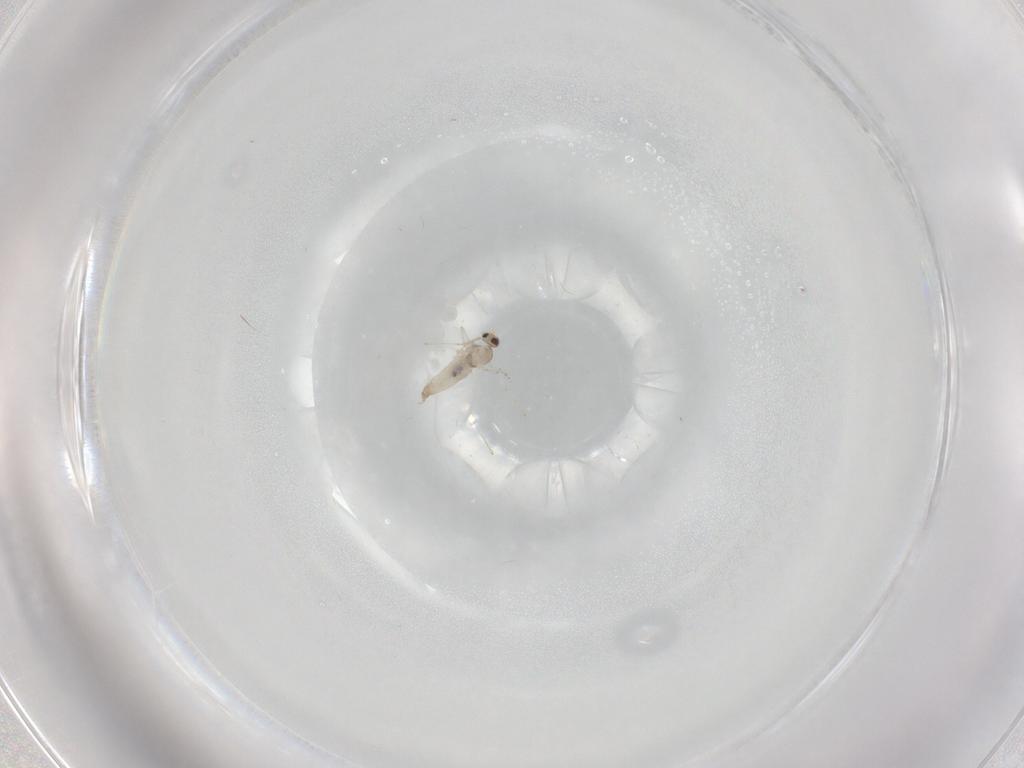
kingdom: Animalia
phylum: Arthropoda
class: Insecta
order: Diptera
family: Cecidomyiidae
